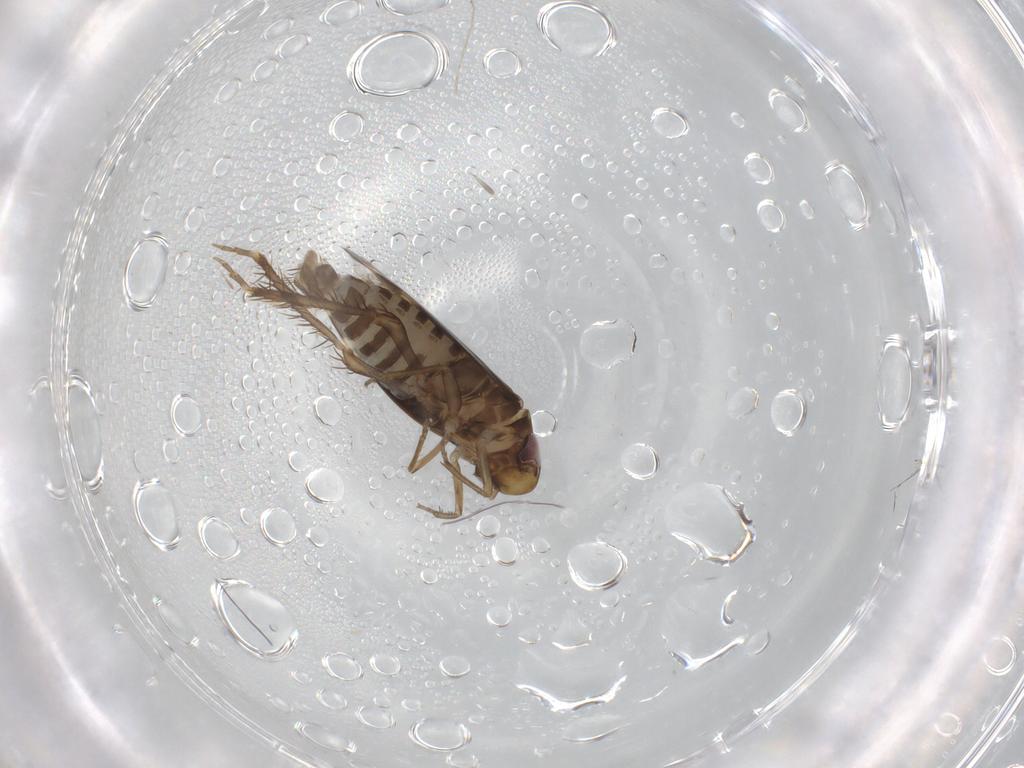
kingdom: Animalia
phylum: Arthropoda
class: Insecta
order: Hemiptera
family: Cicadellidae
